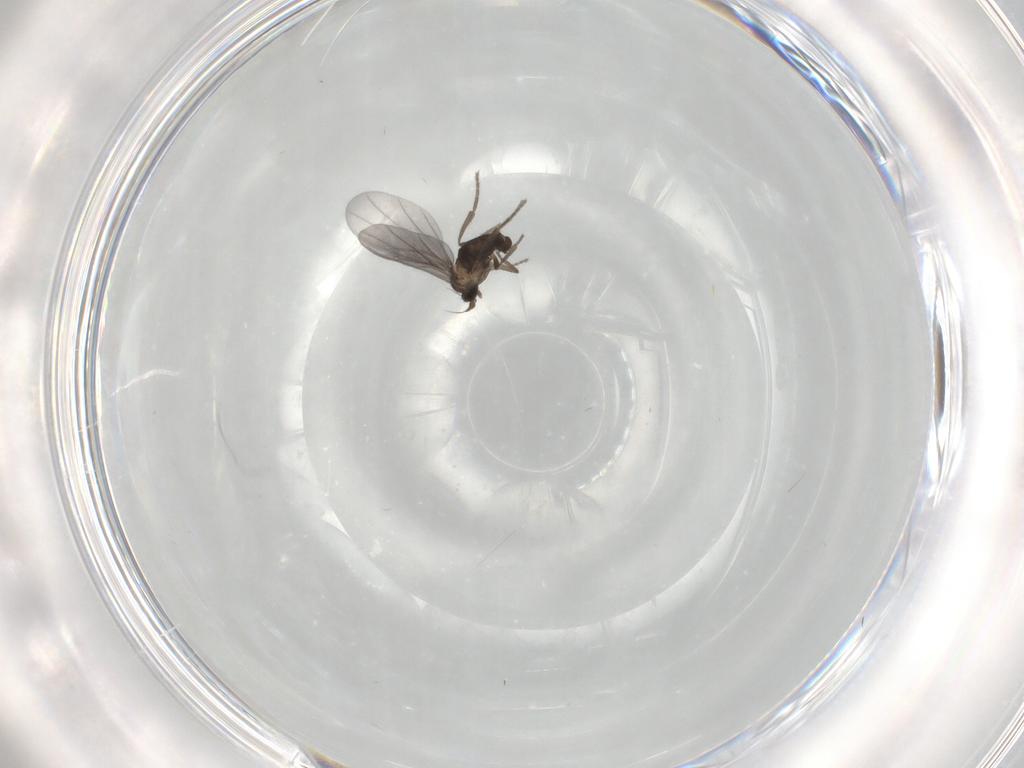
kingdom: Animalia
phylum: Arthropoda
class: Insecta
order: Diptera
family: Phoridae
